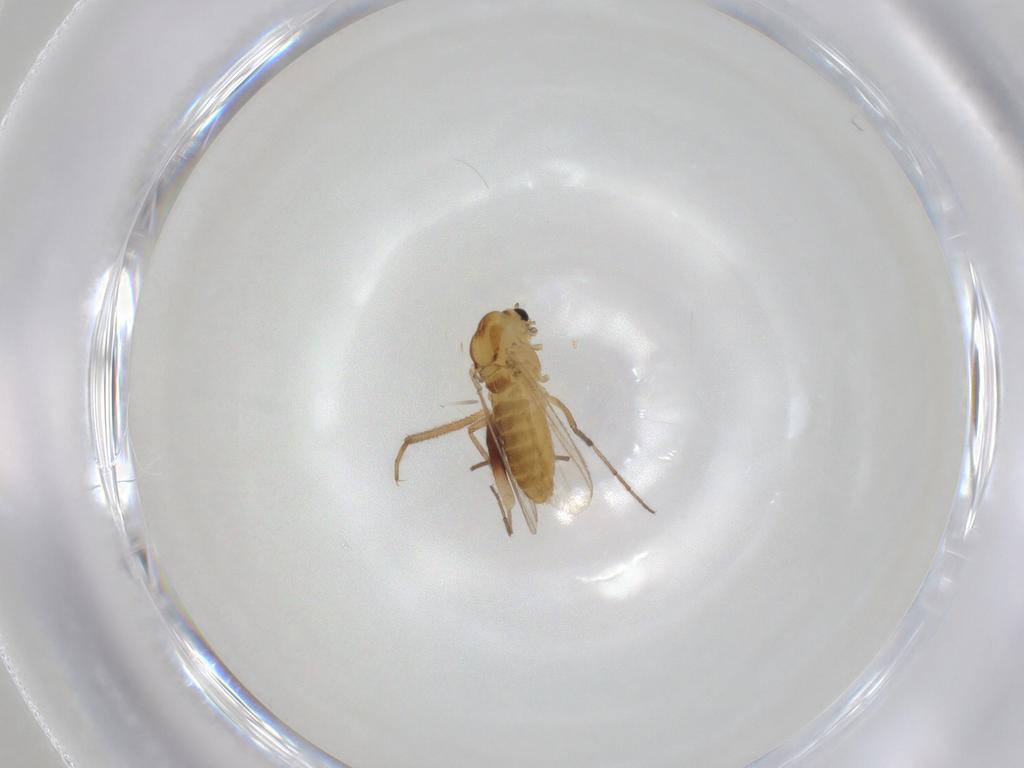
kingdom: Animalia
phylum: Arthropoda
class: Insecta
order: Diptera
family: Chironomidae
